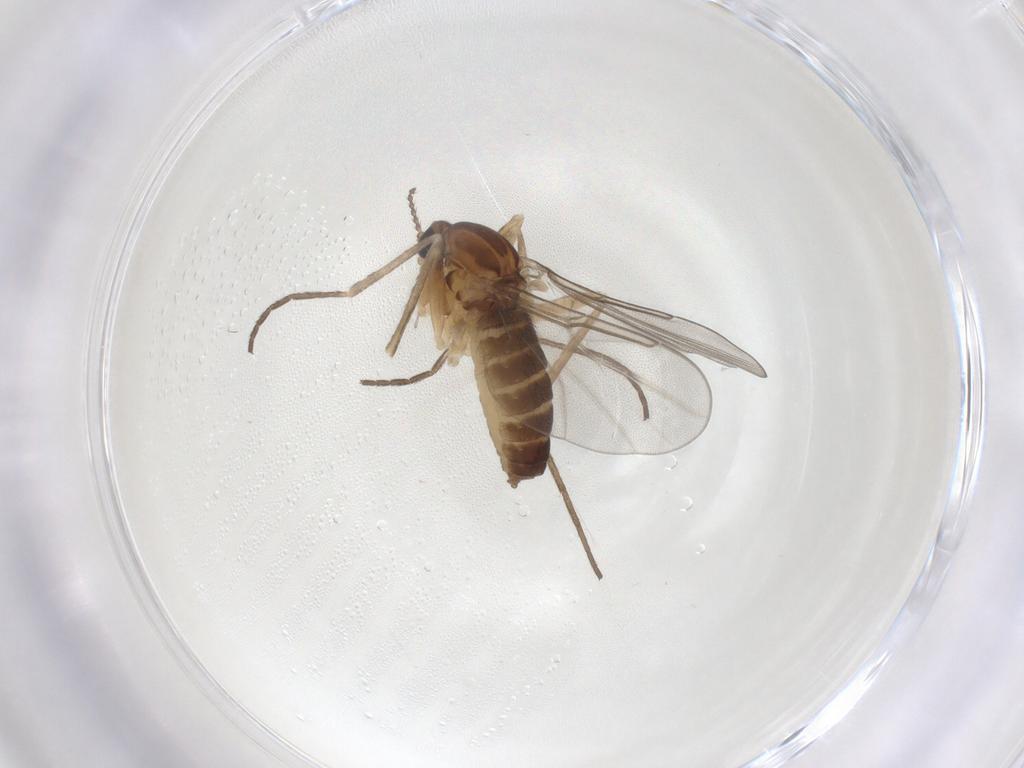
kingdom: Animalia
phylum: Arthropoda
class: Insecta
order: Diptera
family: Cecidomyiidae
